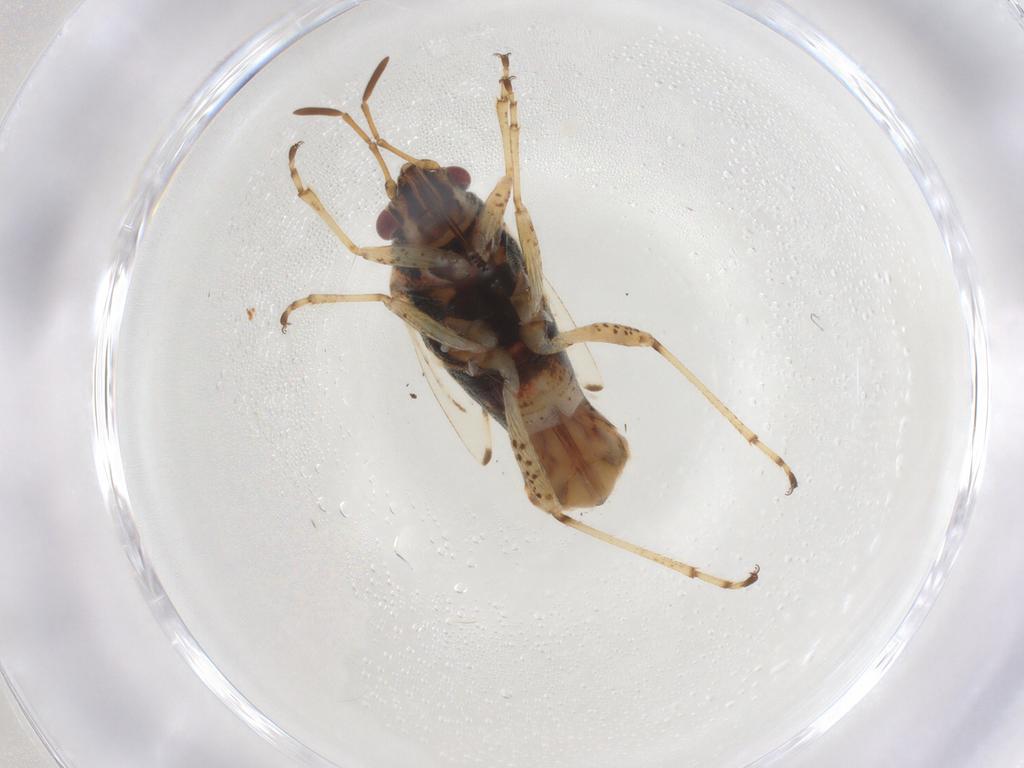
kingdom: Animalia
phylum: Arthropoda
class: Insecta
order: Hemiptera
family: Lygaeidae
